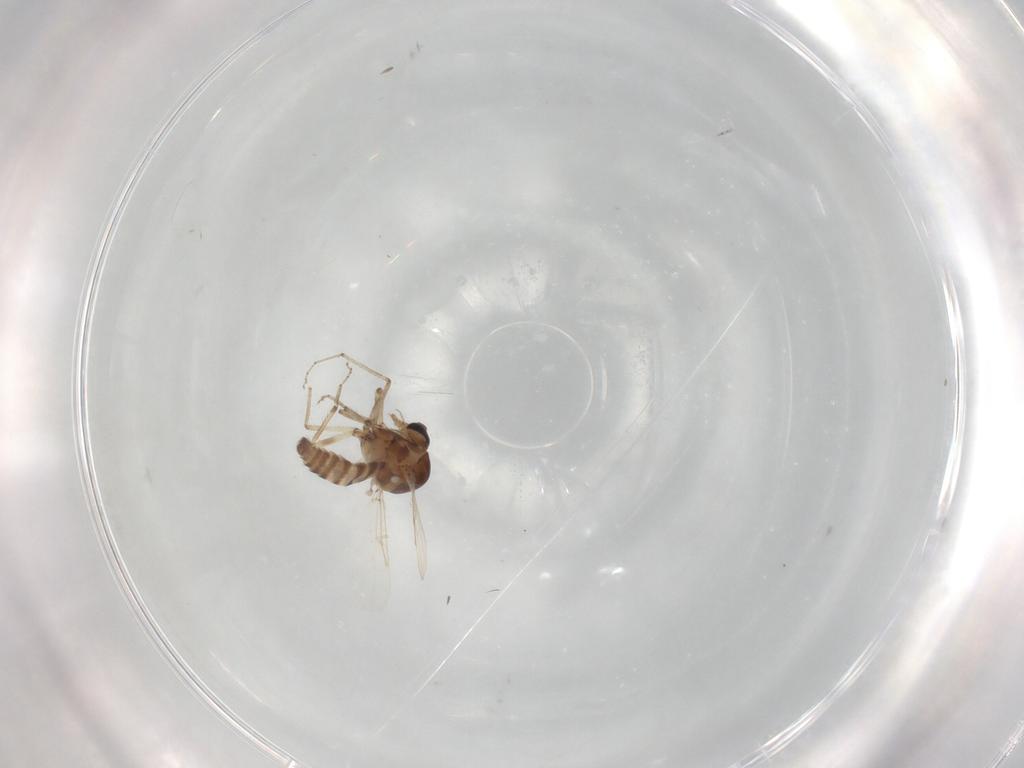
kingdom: Animalia
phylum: Arthropoda
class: Insecta
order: Diptera
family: Ceratopogonidae
